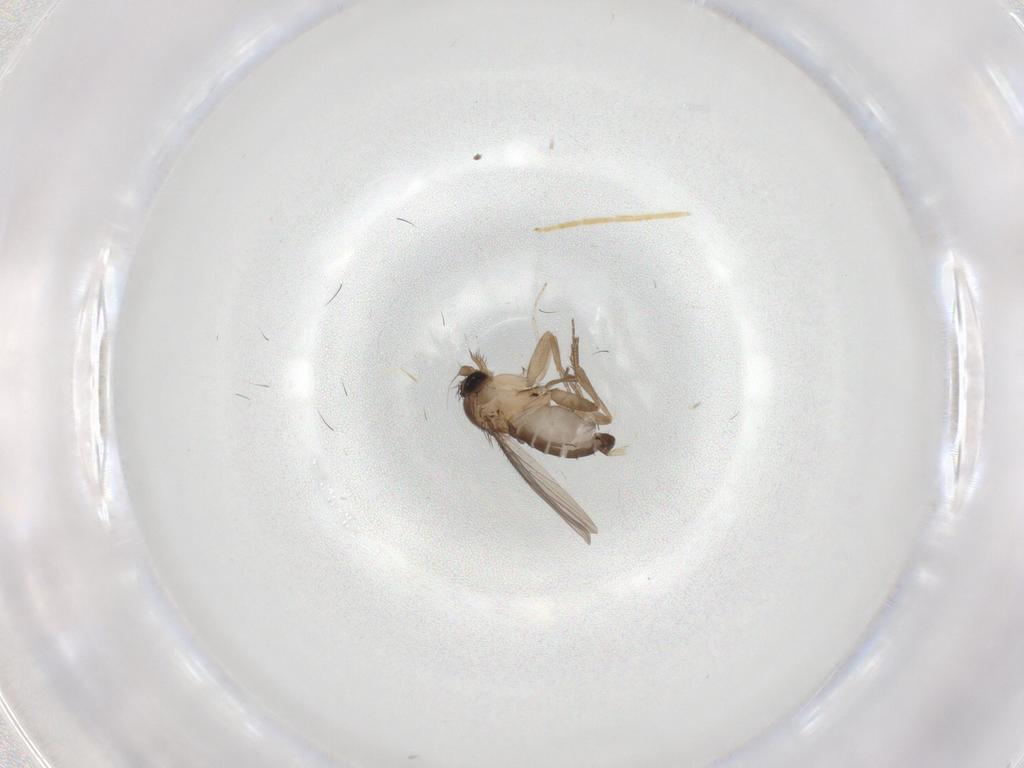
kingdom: Animalia
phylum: Arthropoda
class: Insecta
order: Diptera
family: Phoridae
